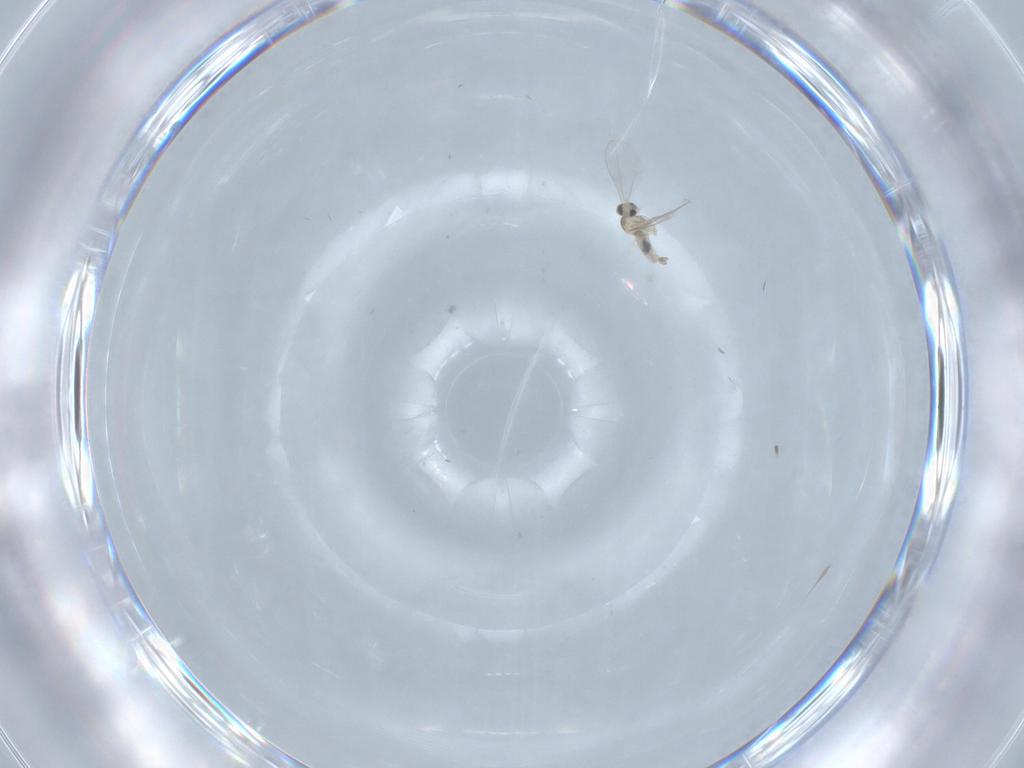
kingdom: Animalia
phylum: Arthropoda
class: Insecta
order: Diptera
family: Cecidomyiidae
